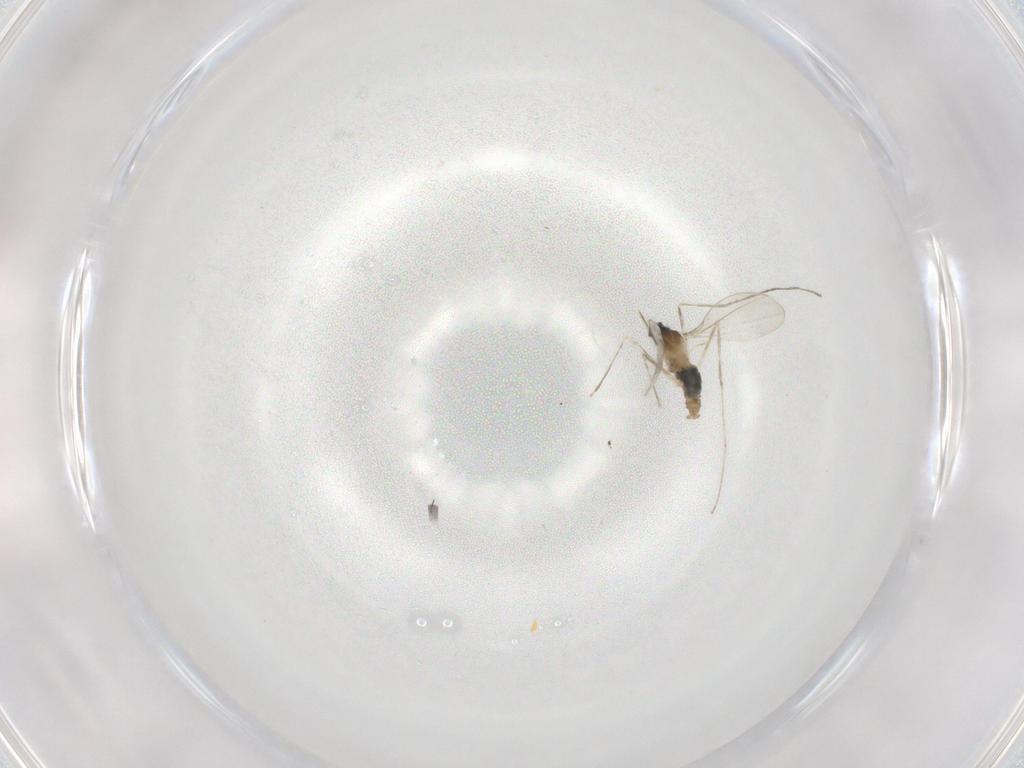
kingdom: Animalia
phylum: Arthropoda
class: Insecta
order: Diptera
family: Cecidomyiidae
